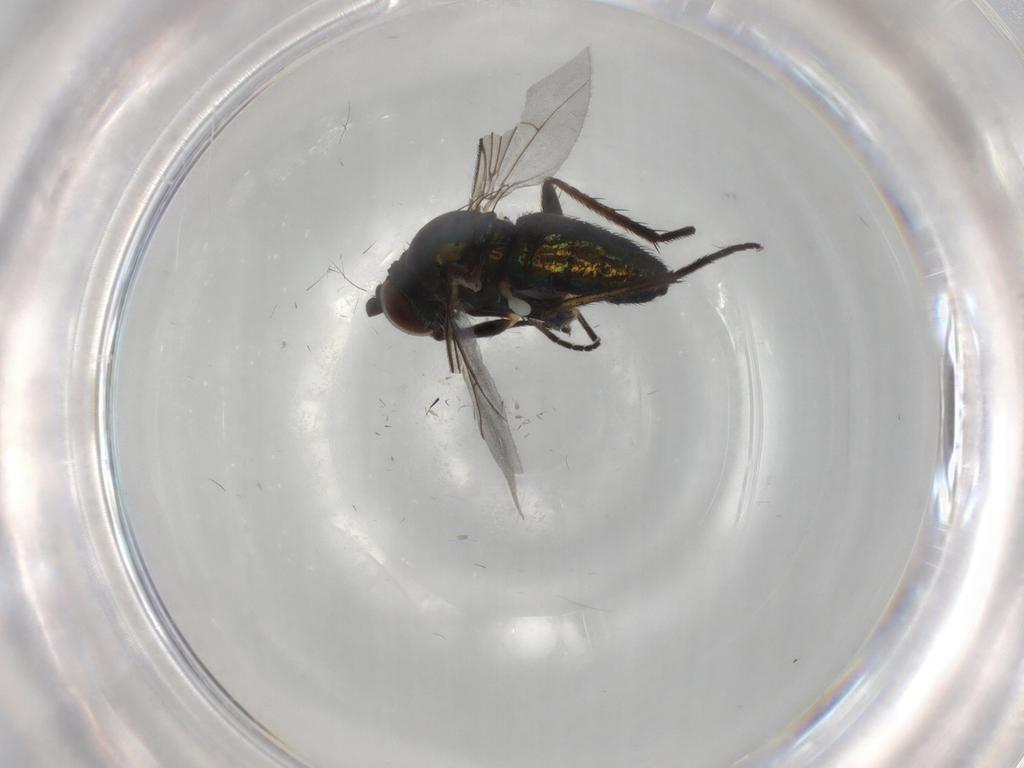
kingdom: Animalia
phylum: Arthropoda
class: Insecta
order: Diptera
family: Dolichopodidae
